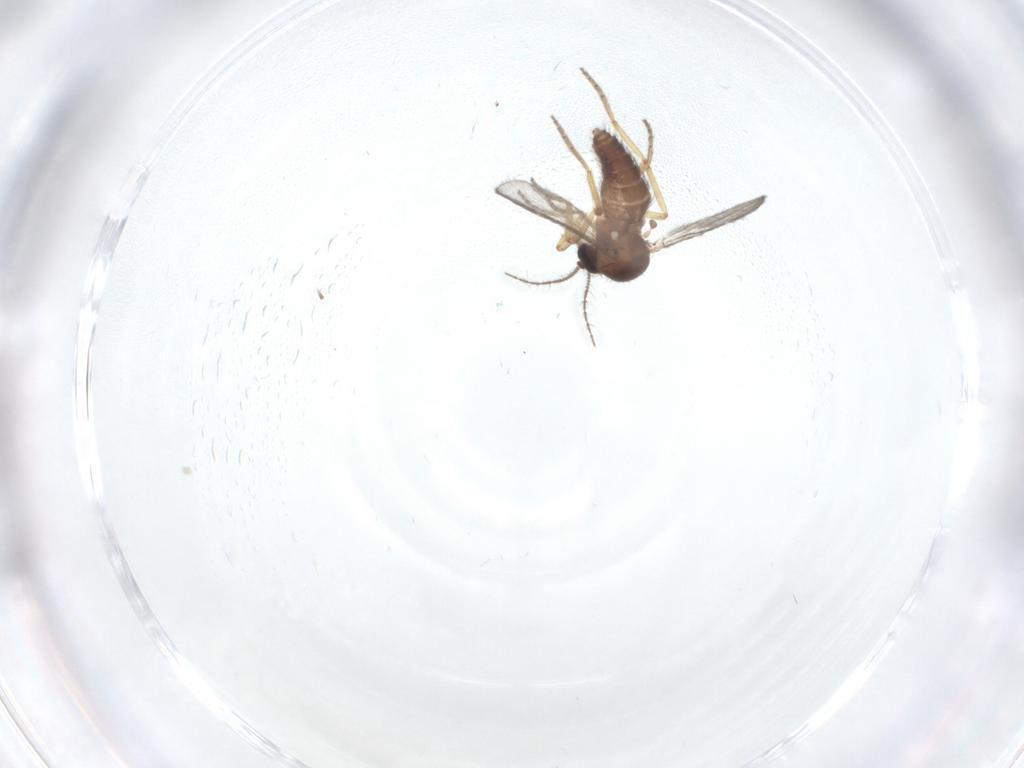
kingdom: Animalia
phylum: Arthropoda
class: Insecta
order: Diptera
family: Ceratopogonidae
